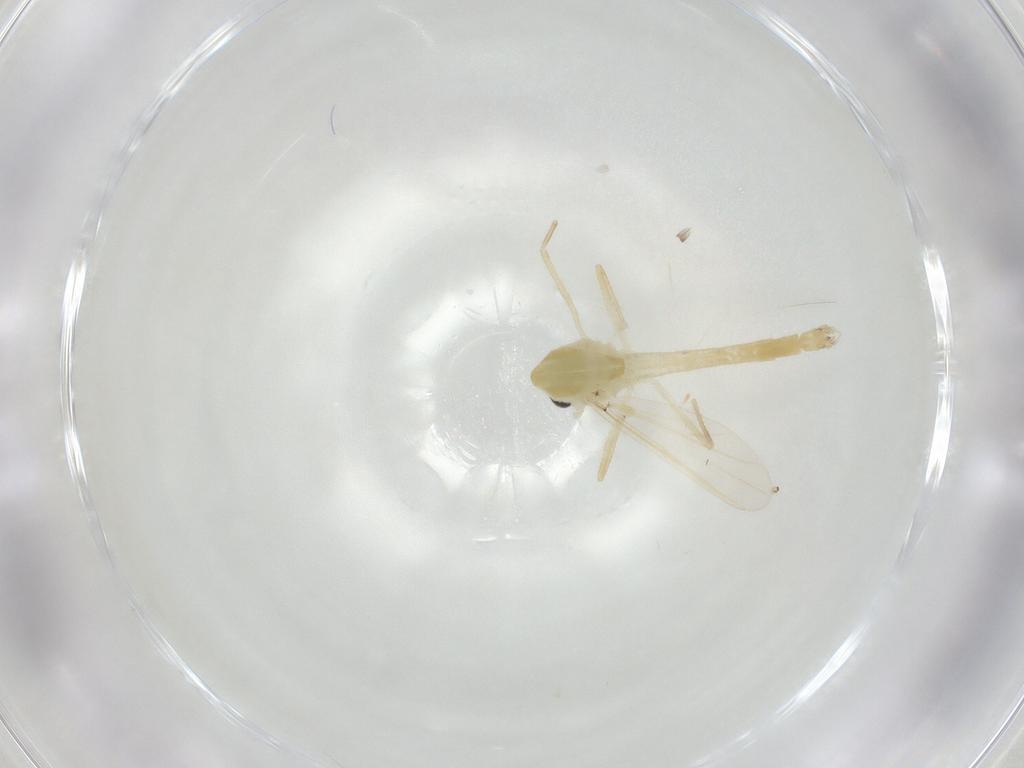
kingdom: Animalia
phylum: Arthropoda
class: Insecta
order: Diptera
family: Chironomidae
